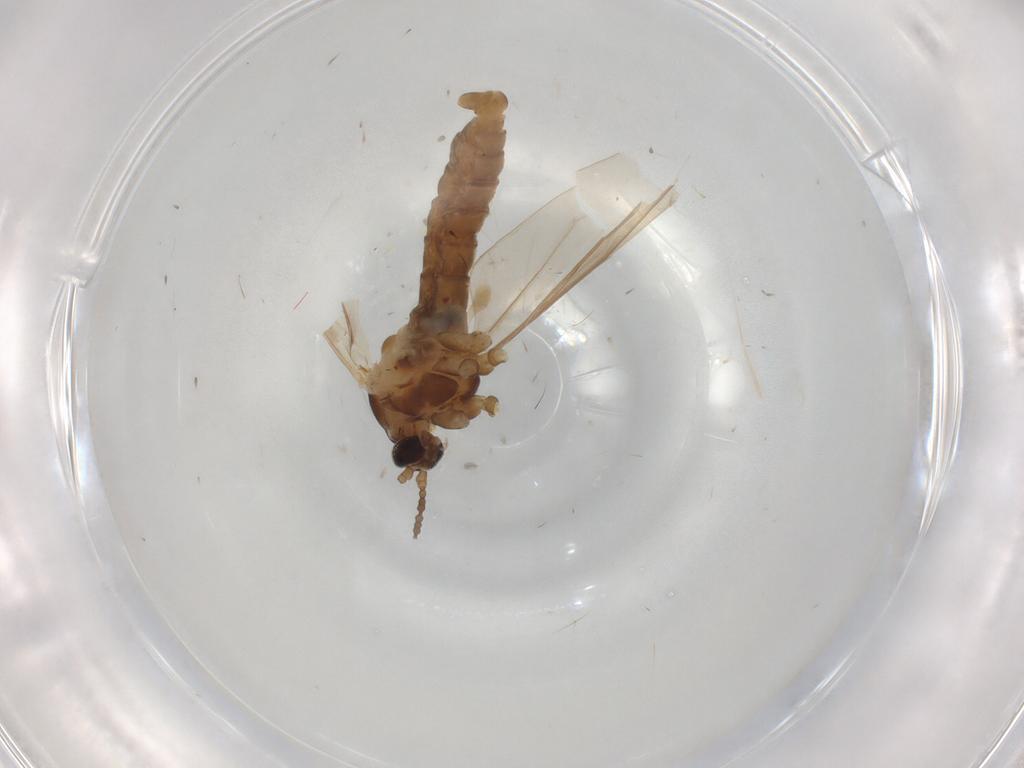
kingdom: Animalia
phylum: Arthropoda
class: Insecta
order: Diptera
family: Cecidomyiidae
